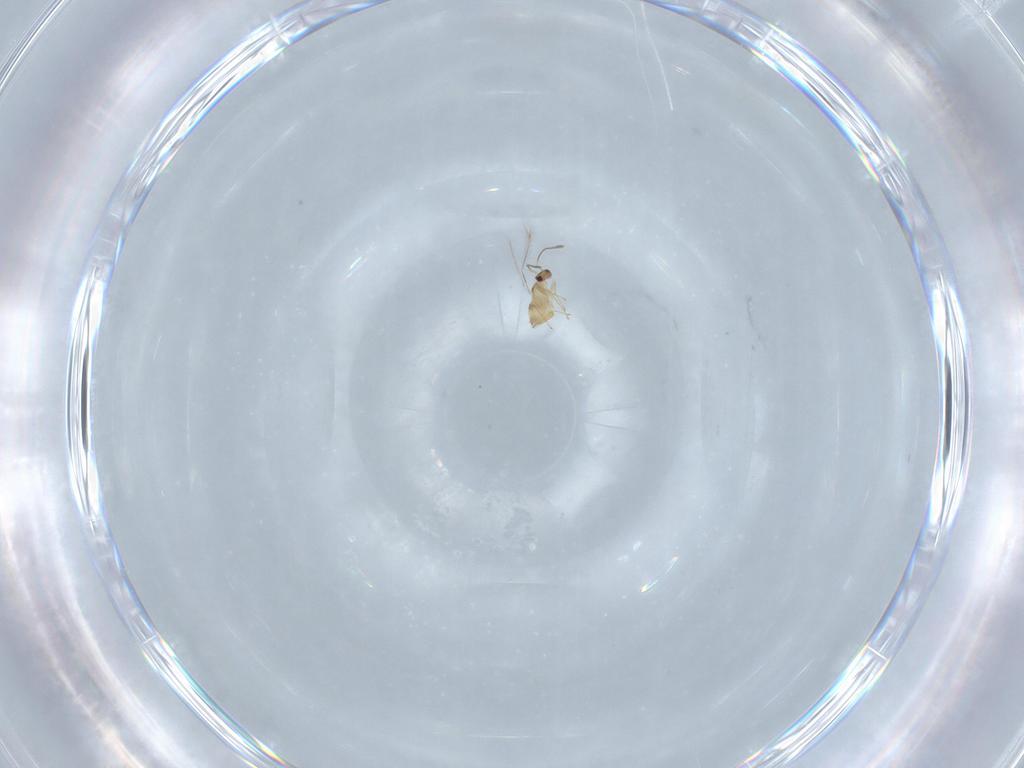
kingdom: Animalia
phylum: Arthropoda
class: Insecta
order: Hymenoptera
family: Mymaridae
